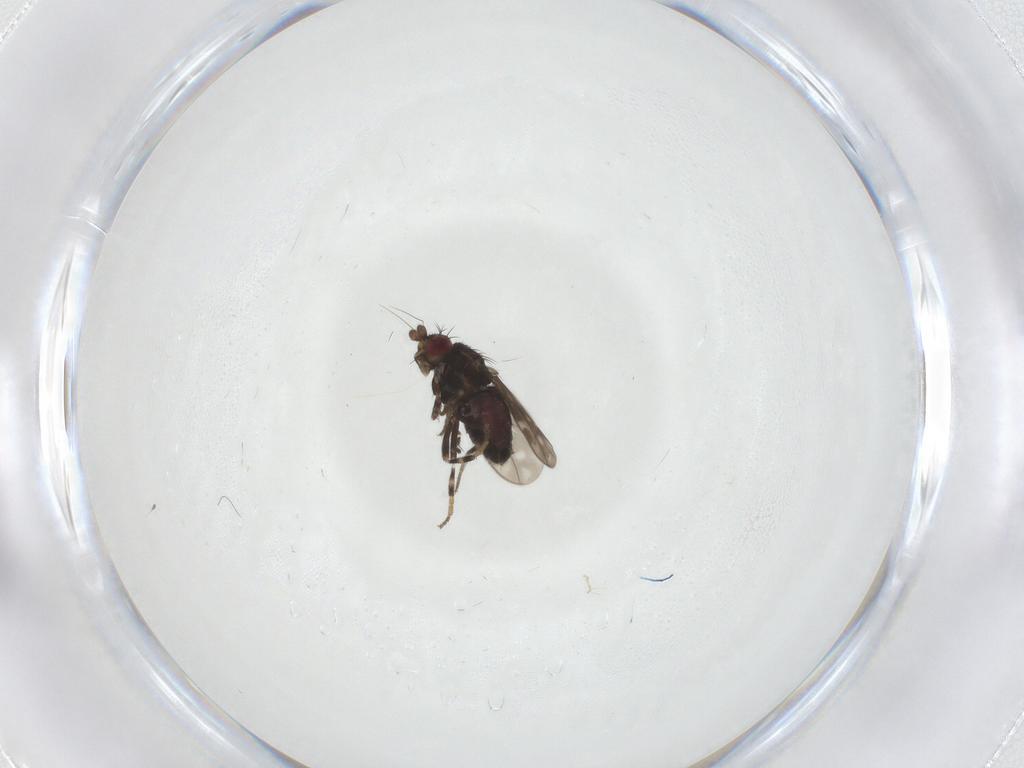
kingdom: Animalia
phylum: Arthropoda
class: Insecta
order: Diptera
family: Sphaeroceridae
